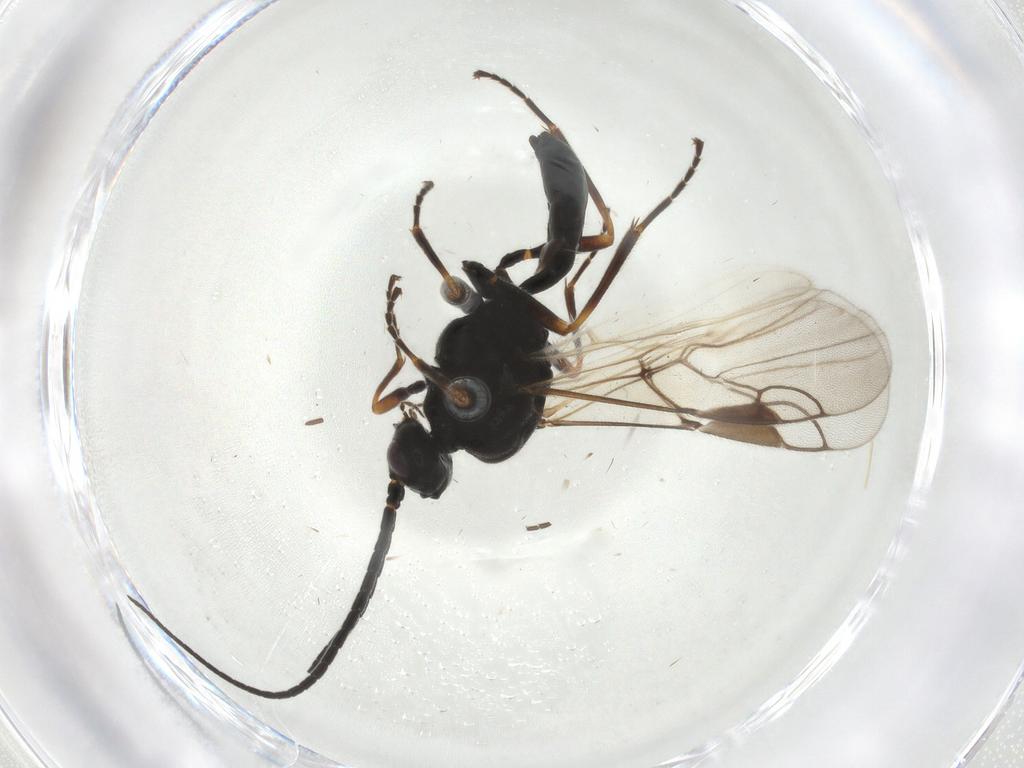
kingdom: Animalia
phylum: Arthropoda
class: Insecta
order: Hymenoptera
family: Braconidae
